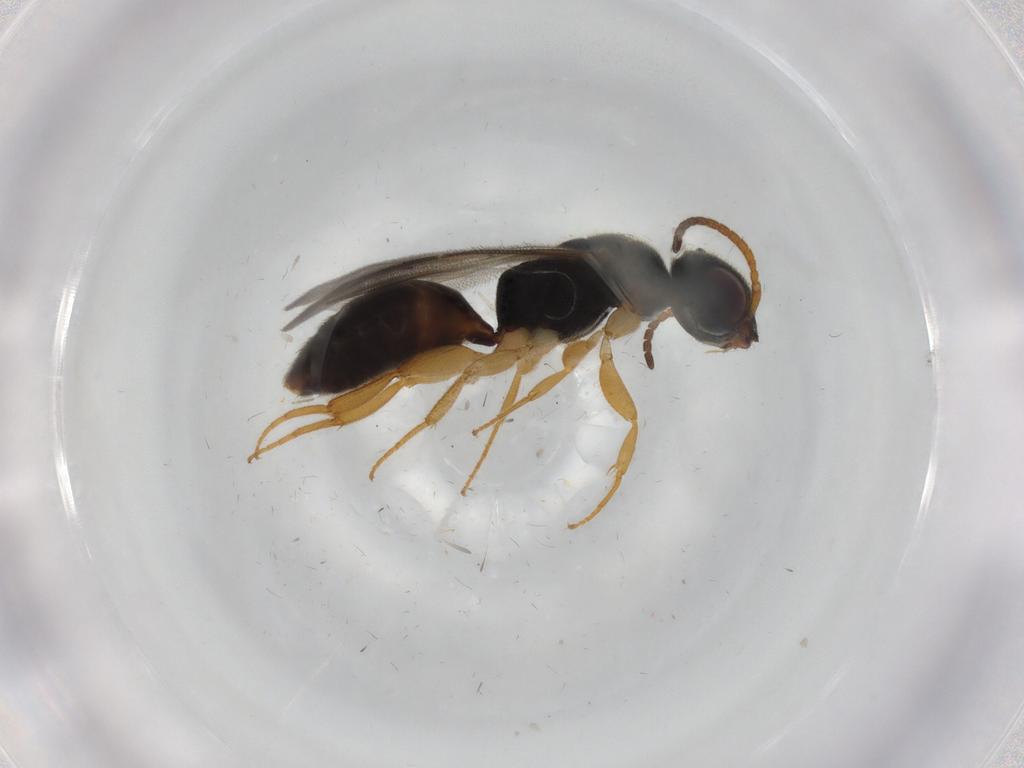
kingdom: Animalia
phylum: Arthropoda
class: Insecta
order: Hymenoptera
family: Bethylidae
